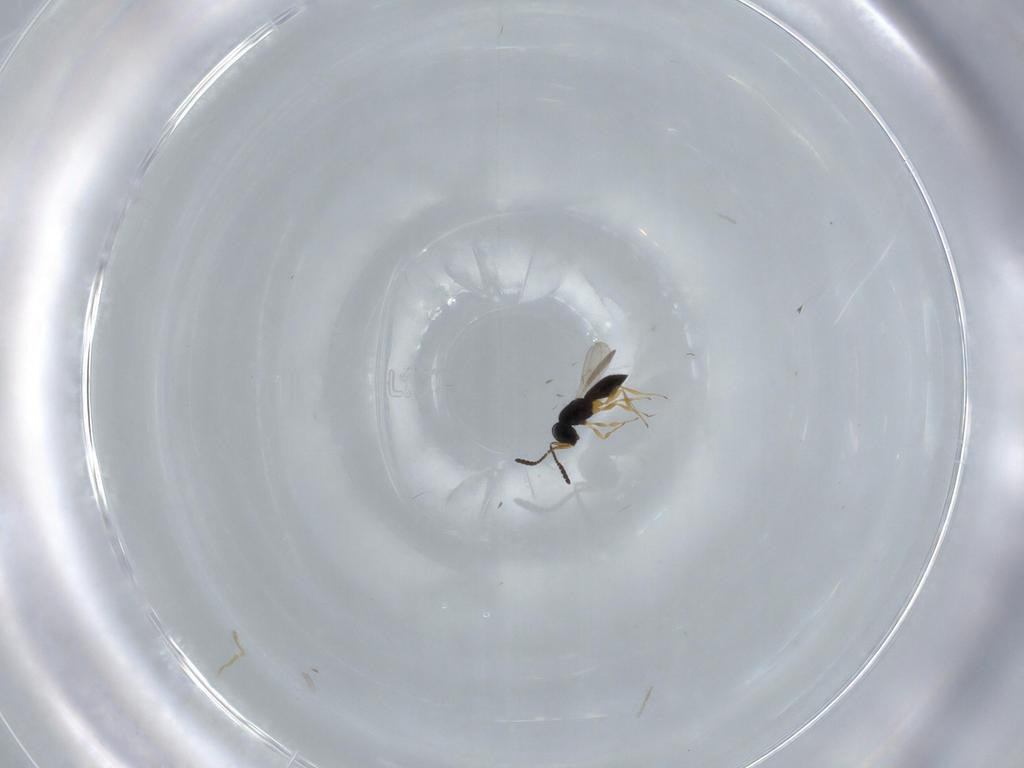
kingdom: Animalia
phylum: Arthropoda
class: Insecta
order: Hymenoptera
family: Scelionidae
